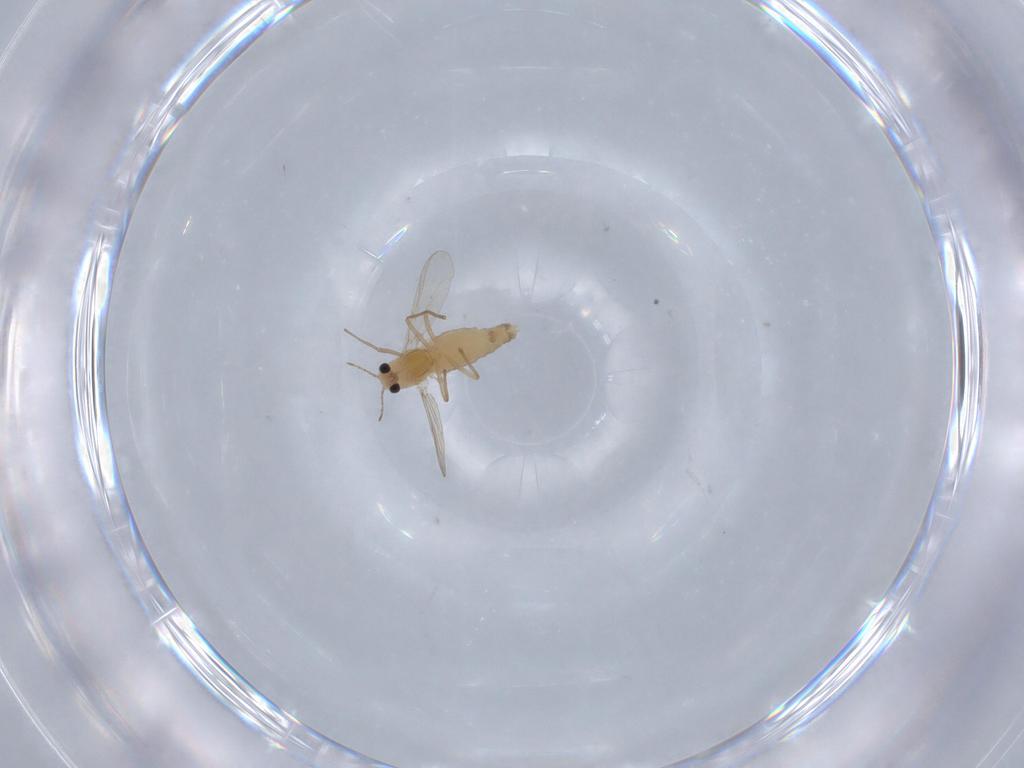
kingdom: Animalia
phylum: Arthropoda
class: Insecta
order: Diptera
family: Chironomidae
